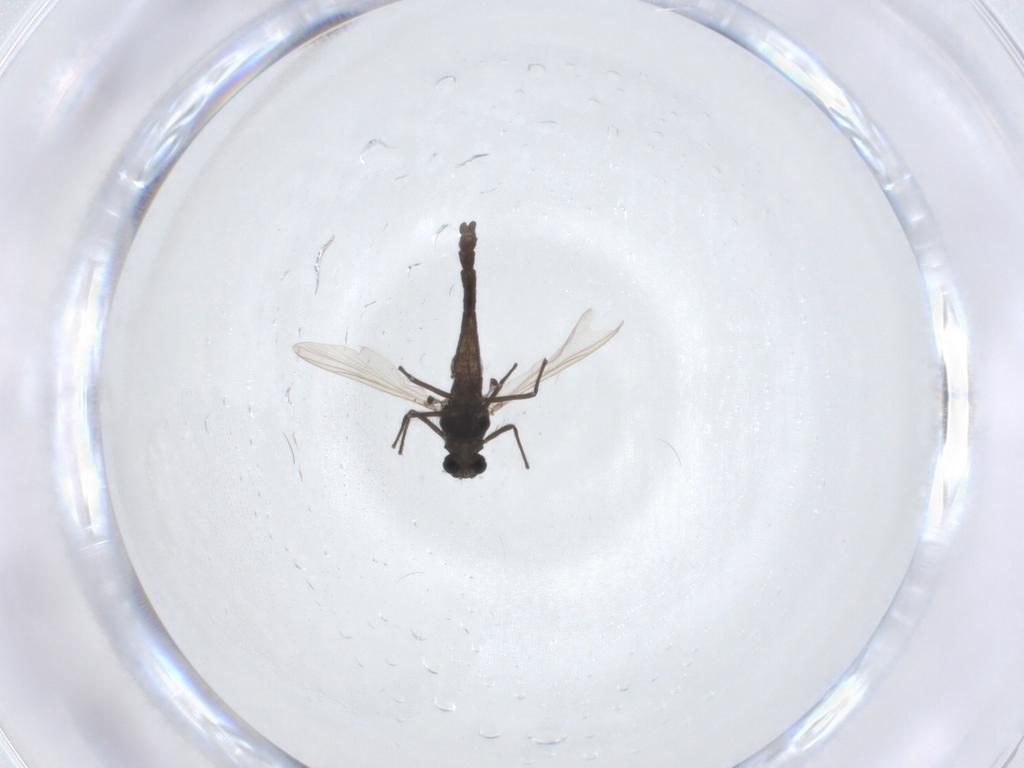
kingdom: Animalia
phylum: Arthropoda
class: Insecta
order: Diptera
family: Chironomidae
